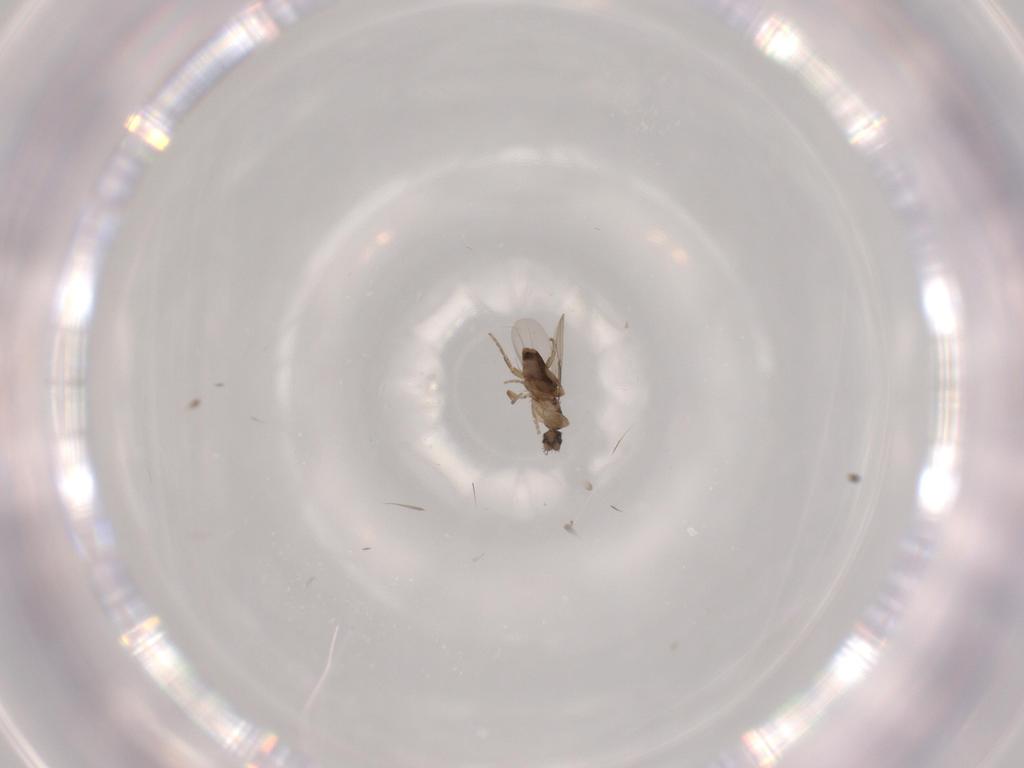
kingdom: Animalia
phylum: Arthropoda
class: Insecta
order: Diptera
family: Phoridae
